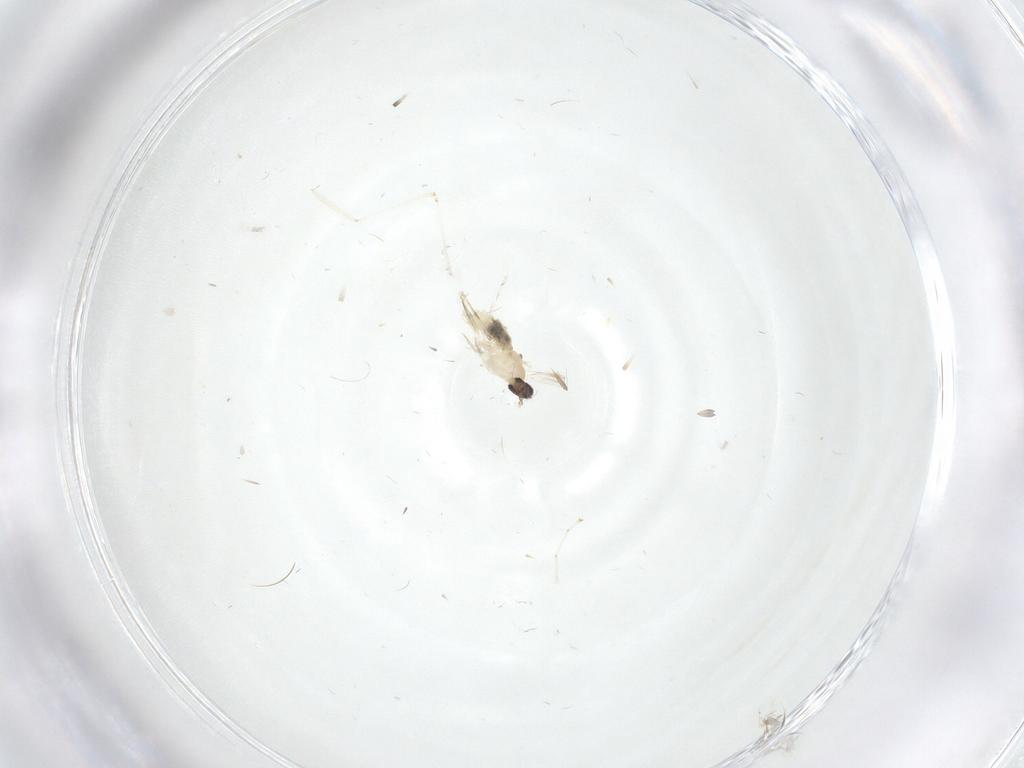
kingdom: Animalia
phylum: Arthropoda
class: Insecta
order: Diptera
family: Cecidomyiidae
